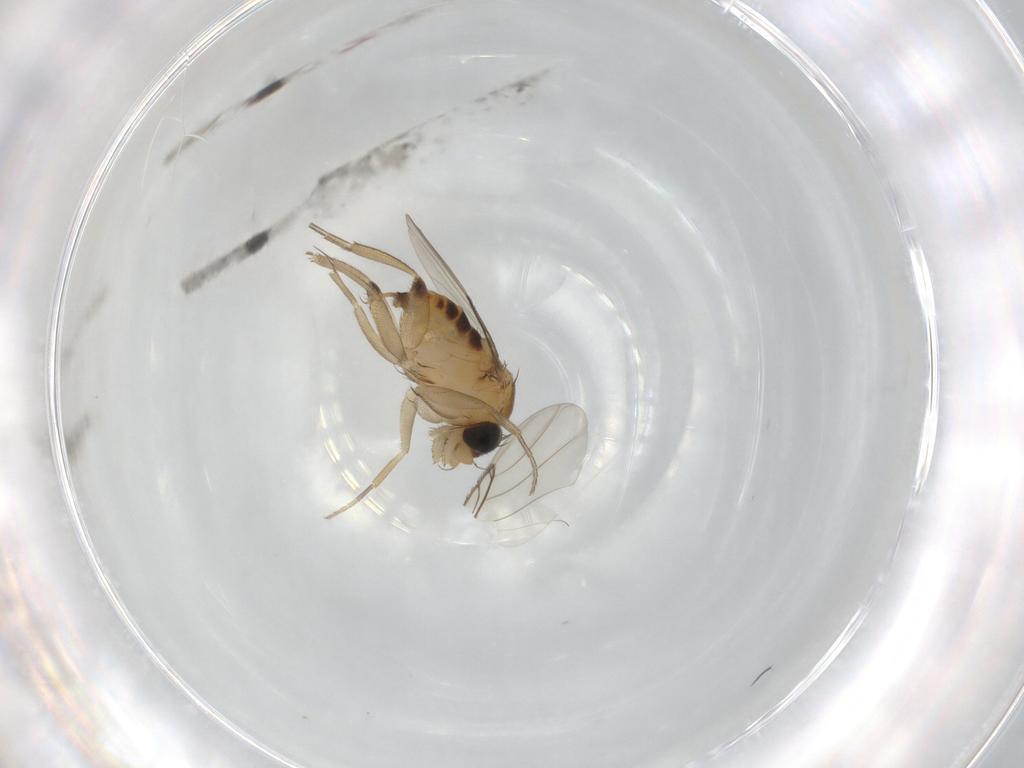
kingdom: Animalia
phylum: Arthropoda
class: Insecta
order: Diptera
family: Phoridae
